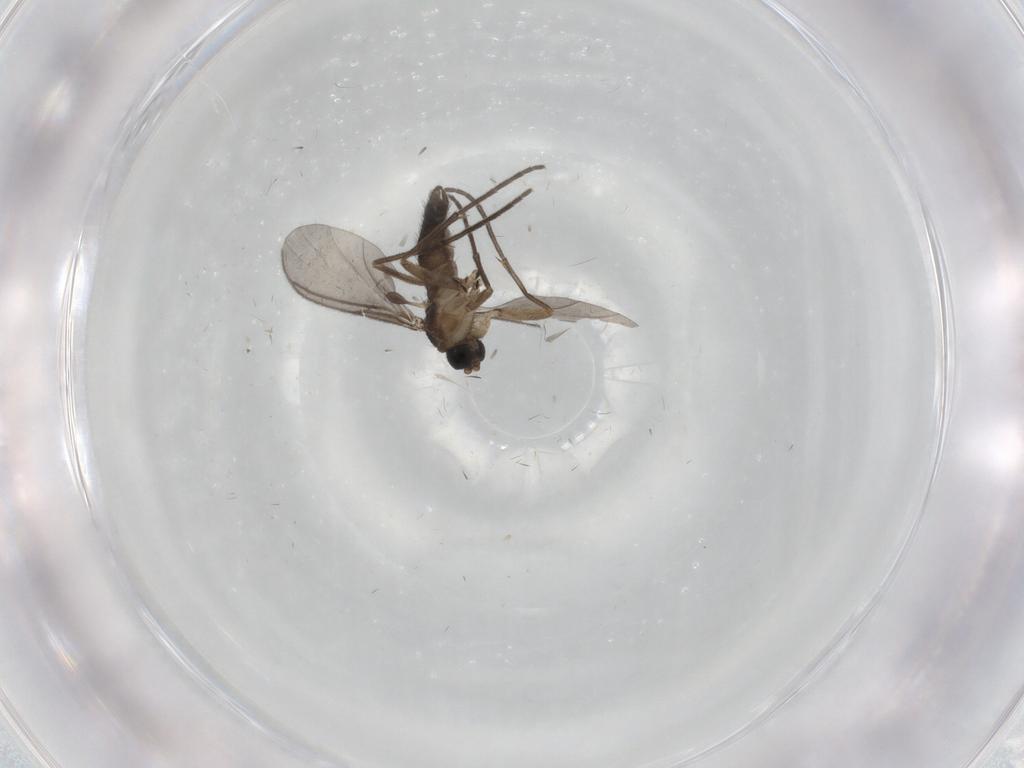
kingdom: Animalia
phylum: Arthropoda
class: Insecta
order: Diptera
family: Sciaridae
